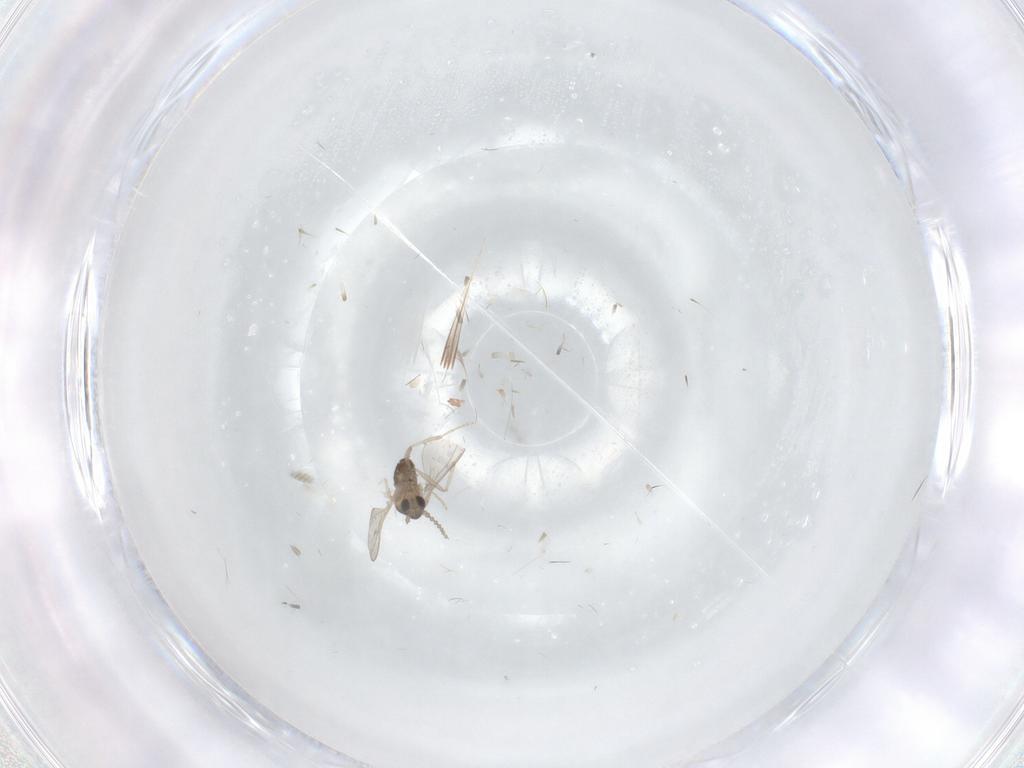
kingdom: Animalia
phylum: Arthropoda
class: Insecta
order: Diptera
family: Cecidomyiidae
